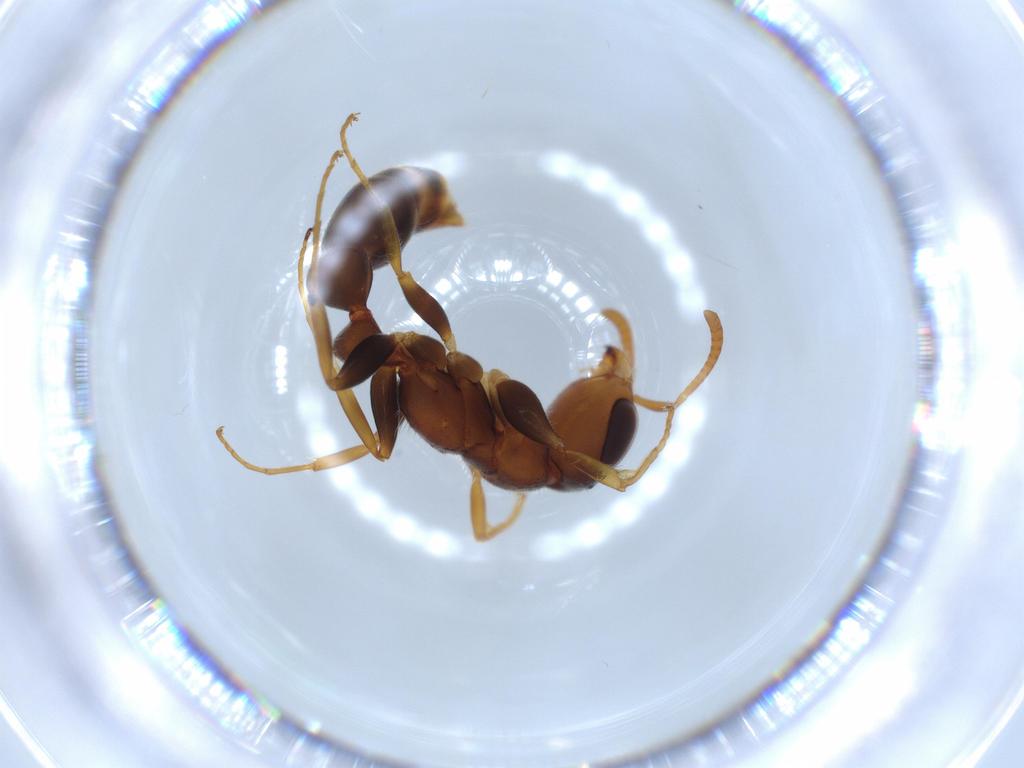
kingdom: Animalia
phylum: Arthropoda
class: Insecta
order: Hymenoptera
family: Formicidae
